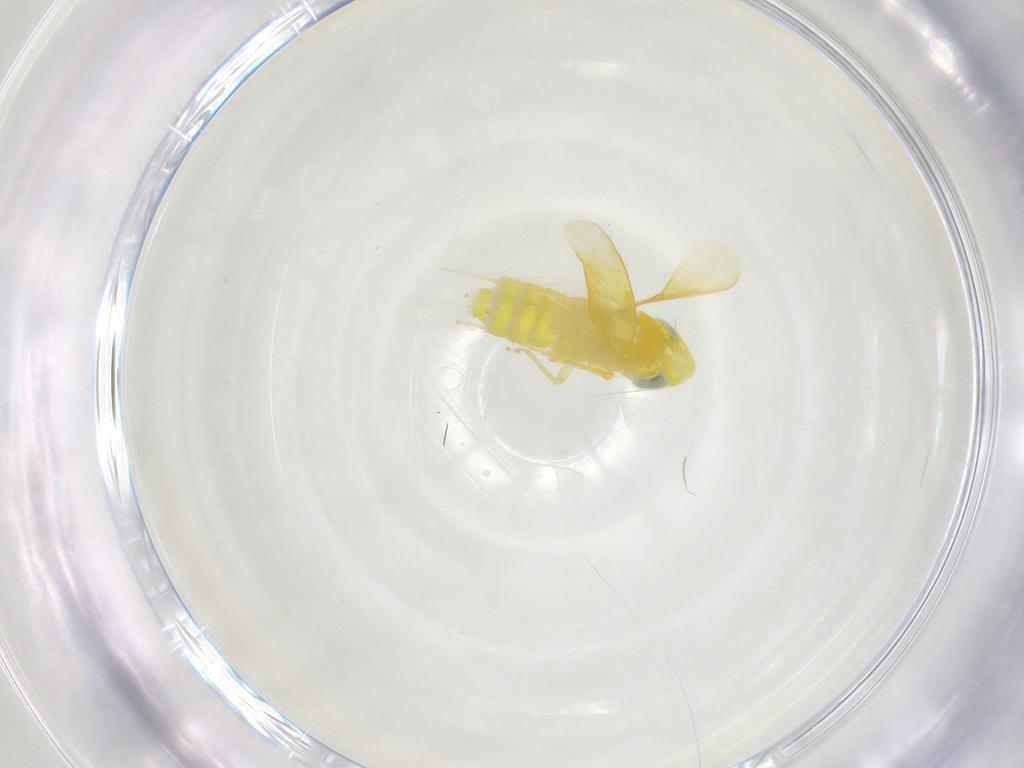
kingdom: Animalia
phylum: Arthropoda
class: Insecta
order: Hemiptera
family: Cicadellidae
